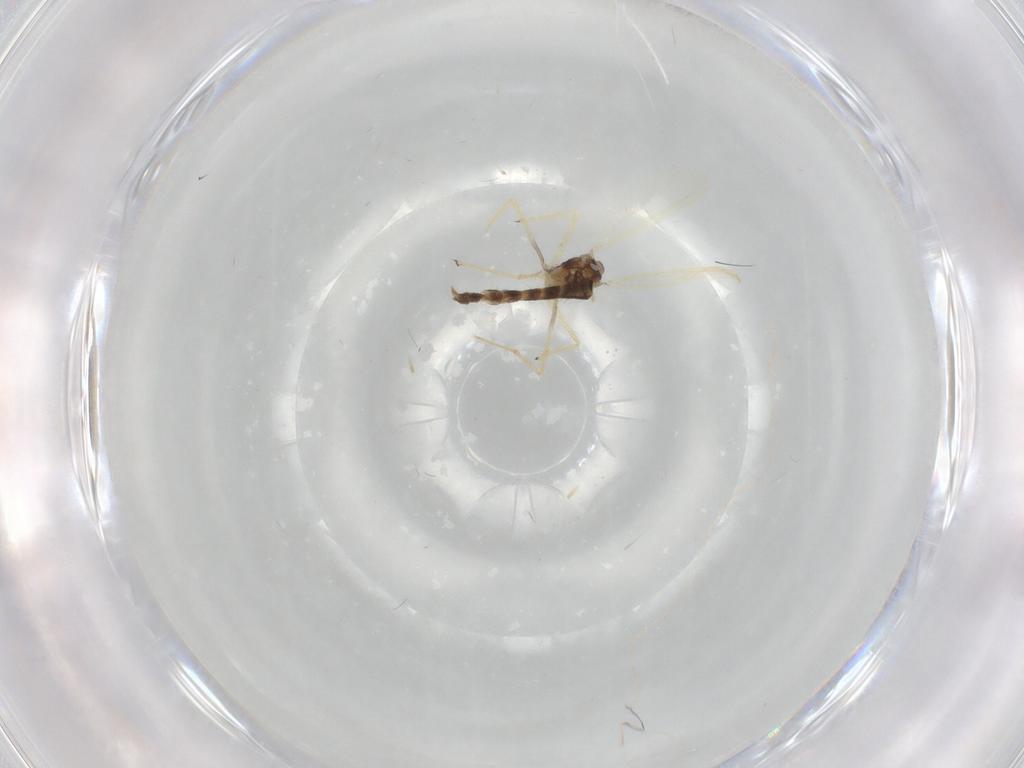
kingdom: Animalia
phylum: Arthropoda
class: Insecta
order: Diptera
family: Chironomidae
